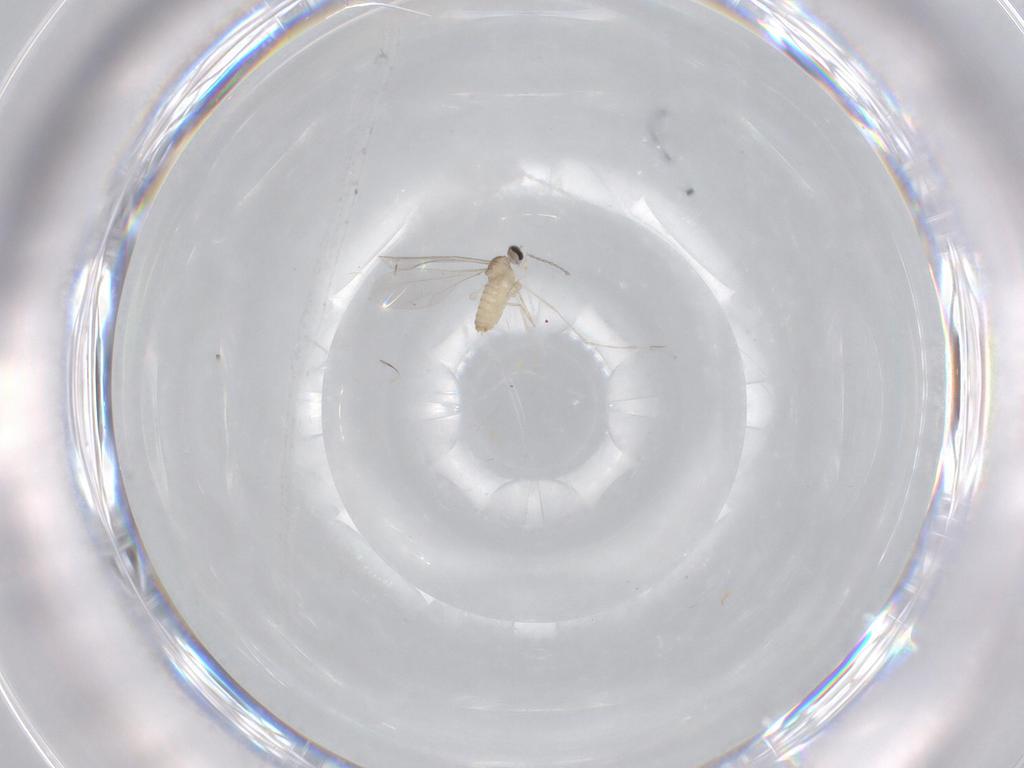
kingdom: Animalia
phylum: Arthropoda
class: Insecta
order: Diptera
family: Cecidomyiidae
